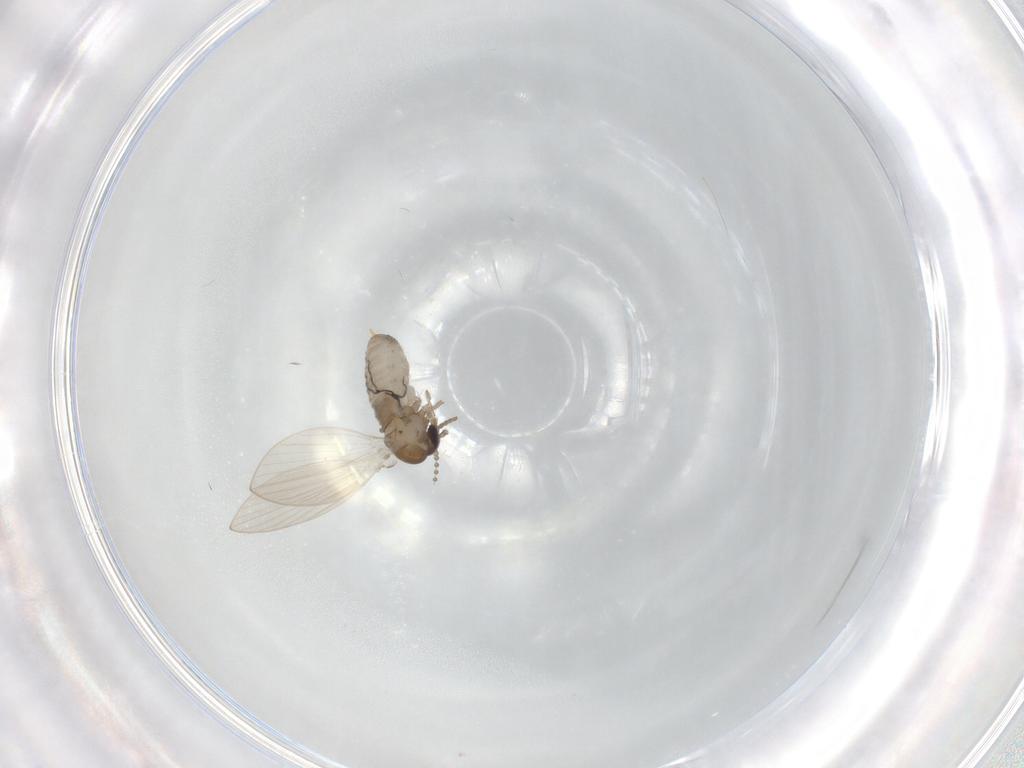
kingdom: Animalia
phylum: Arthropoda
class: Insecta
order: Diptera
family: Psychodidae
